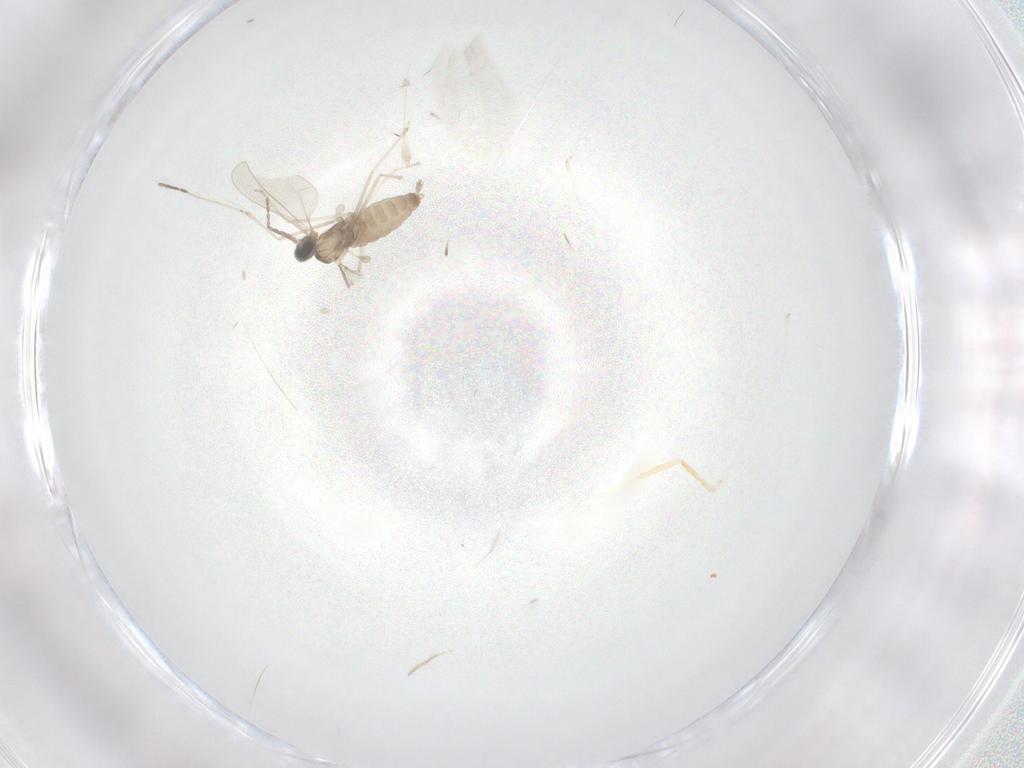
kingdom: Animalia
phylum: Arthropoda
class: Insecta
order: Diptera
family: Cecidomyiidae
